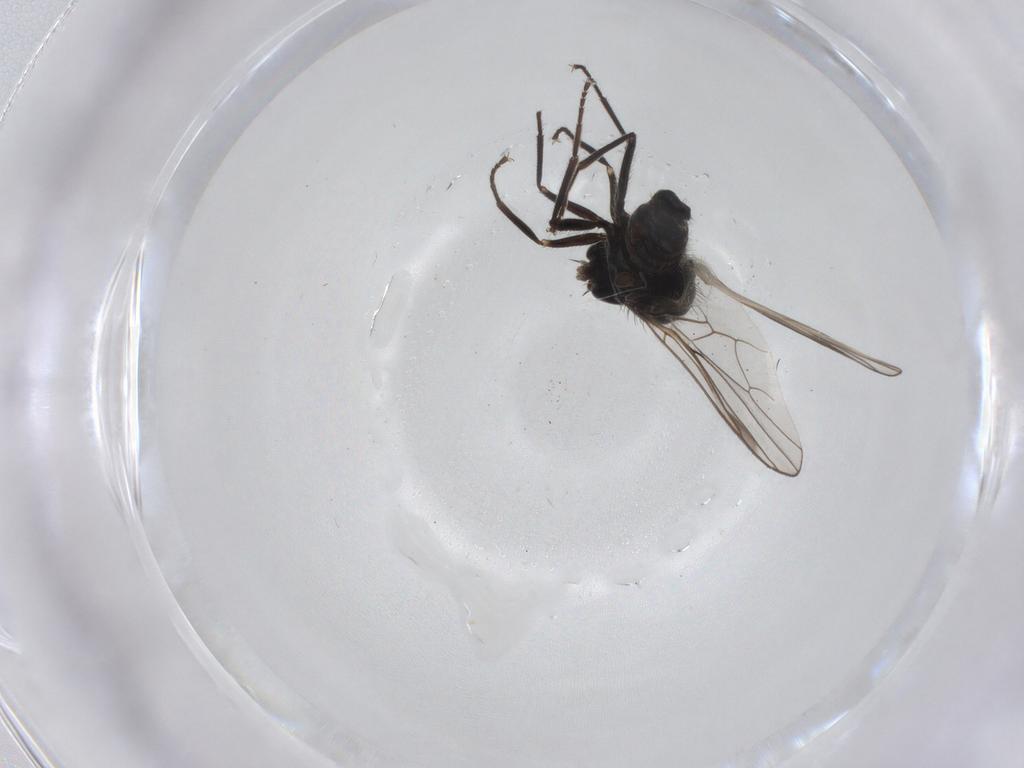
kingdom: Animalia
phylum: Arthropoda
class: Insecta
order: Diptera
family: Hybotidae
